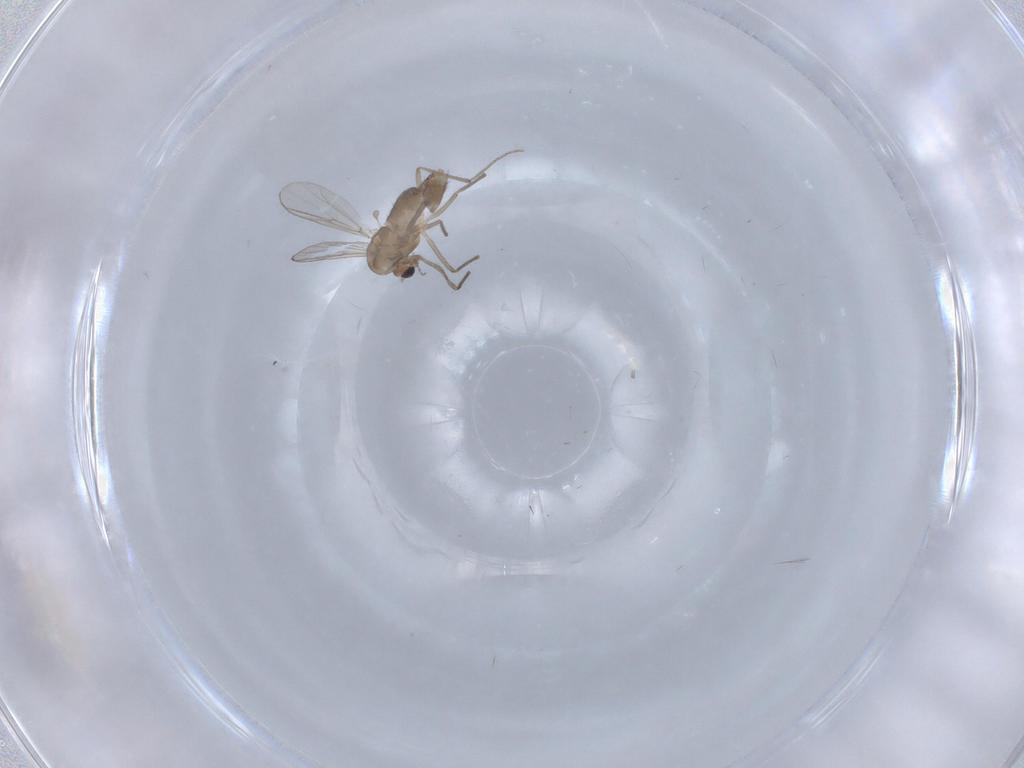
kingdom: Animalia
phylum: Arthropoda
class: Insecta
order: Diptera
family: Chironomidae
